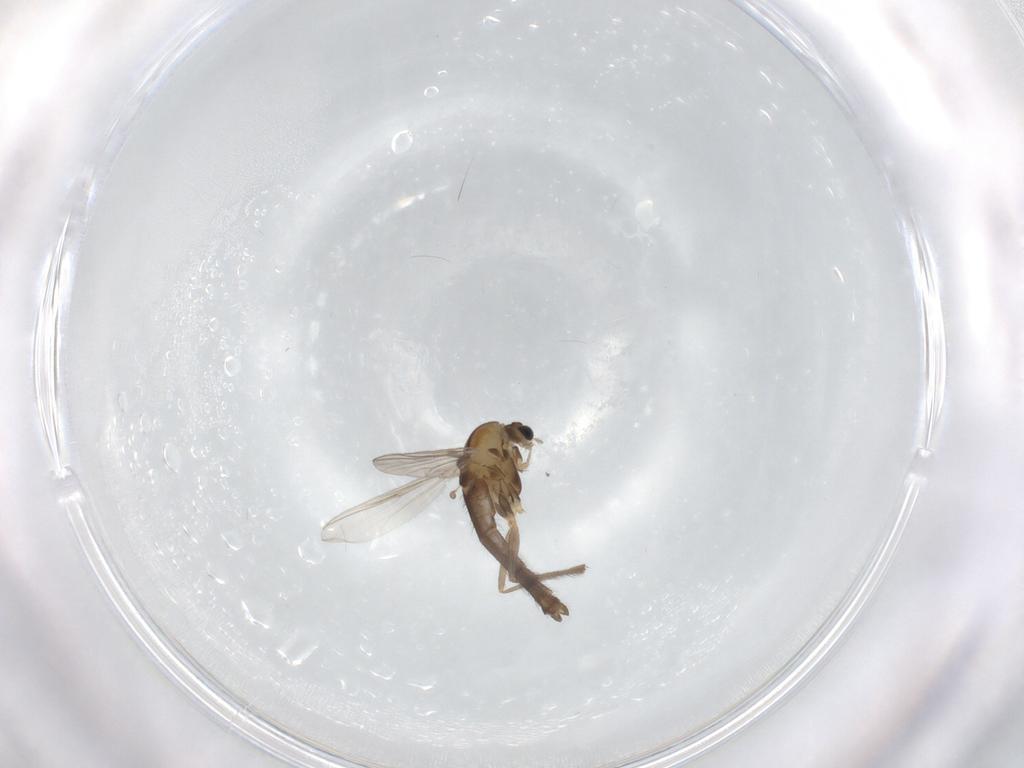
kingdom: Animalia
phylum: Arthropoda
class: Insecta
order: Diptera
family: Chironomidae
